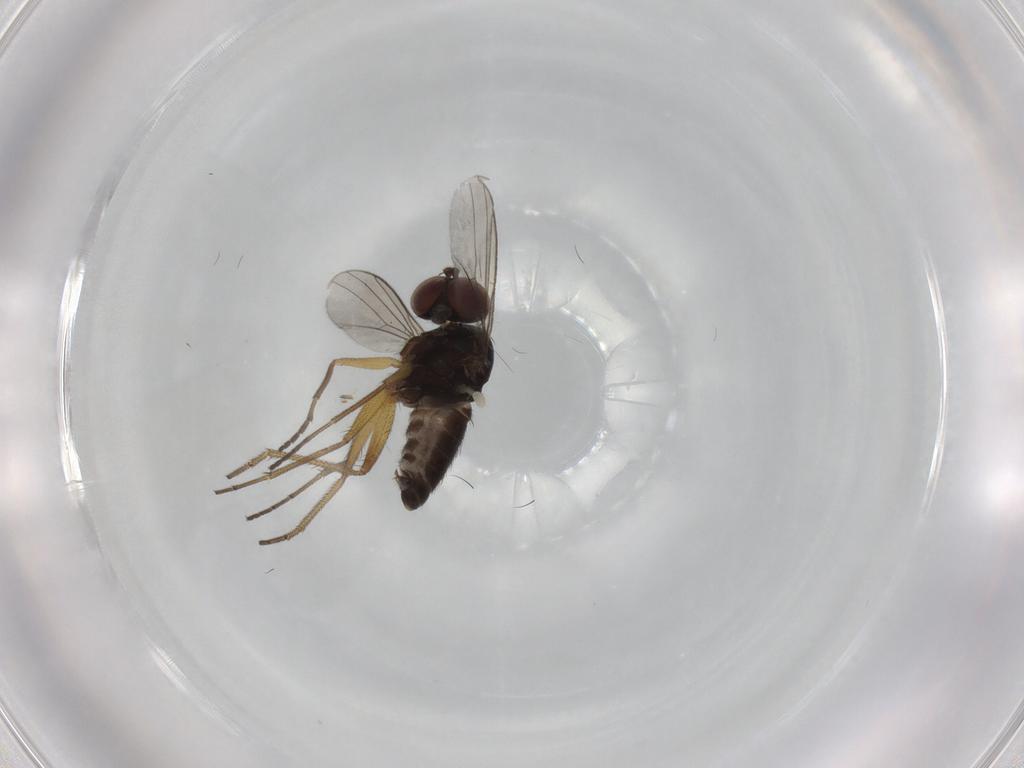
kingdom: Animalia
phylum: Arthropoda
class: Insecta
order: Diptera
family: Dolichopodidae
